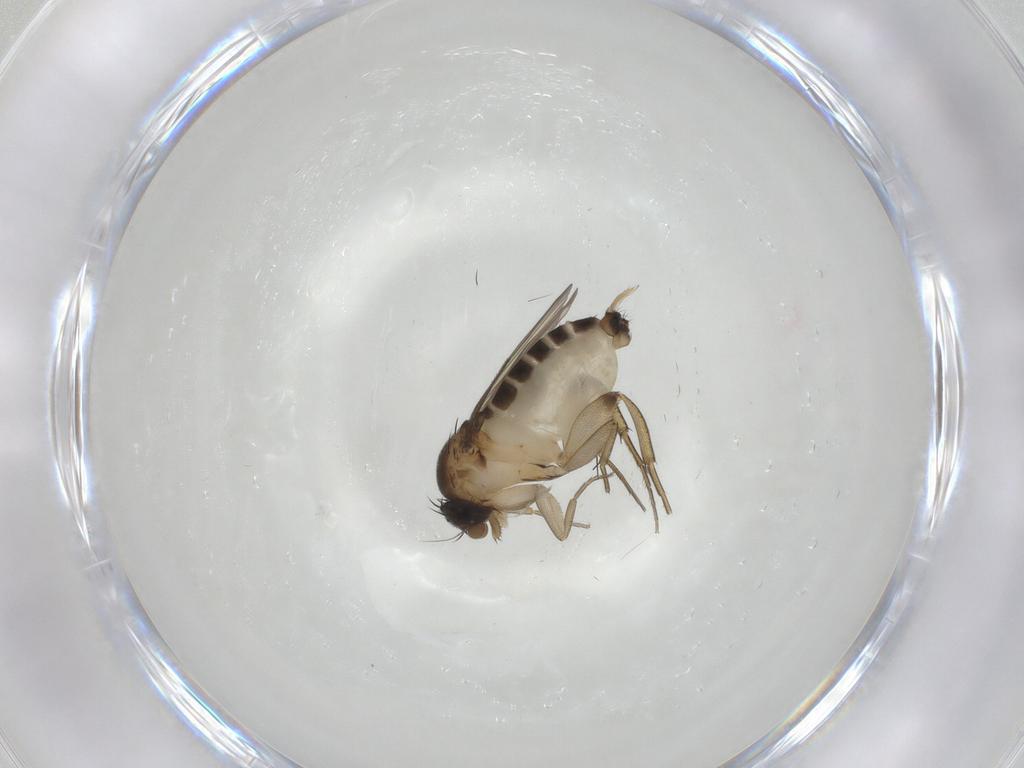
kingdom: Animalia
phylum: Arthropoda
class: Insecta
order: Diptera
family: Phoridae
